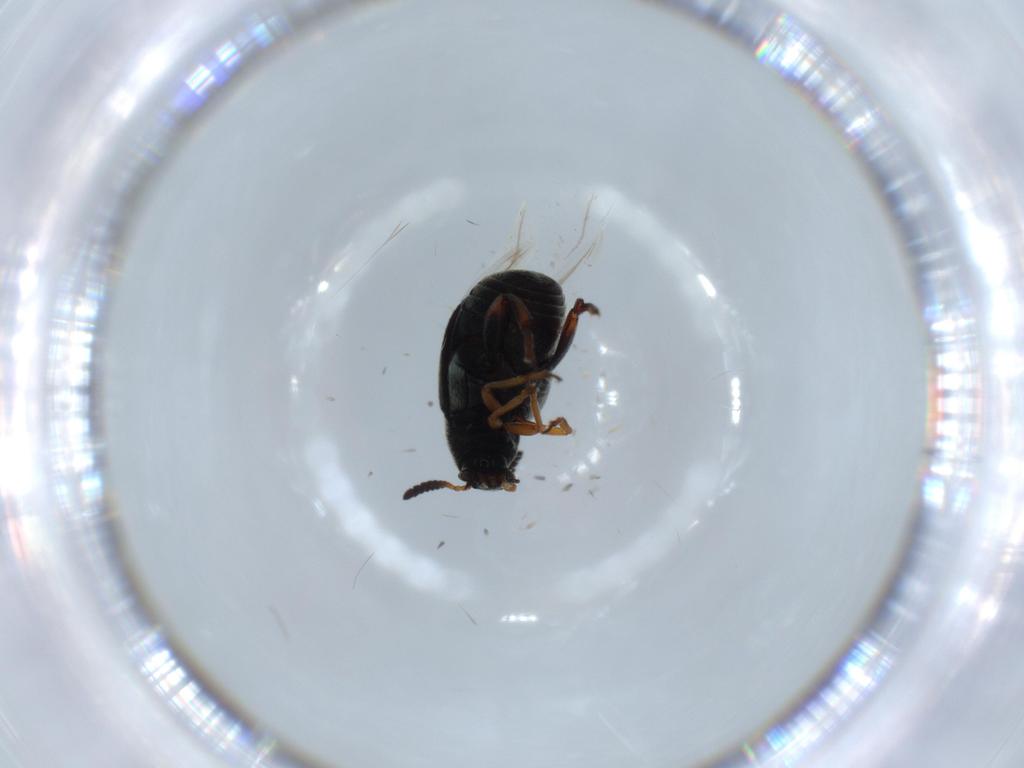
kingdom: Animalia
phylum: Arthropoda
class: Insecta
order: Coleoptera
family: Chrysomelidae
